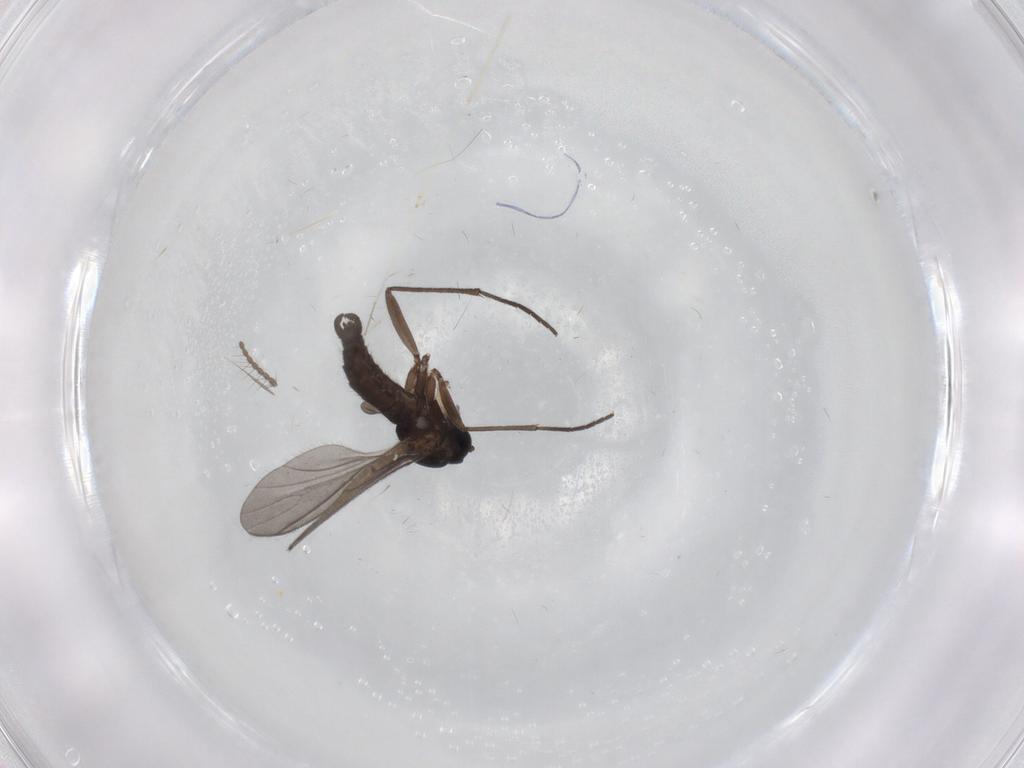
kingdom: Animalia
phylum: Arthropoda
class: Insecta
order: Diptera
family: Sciaridae
